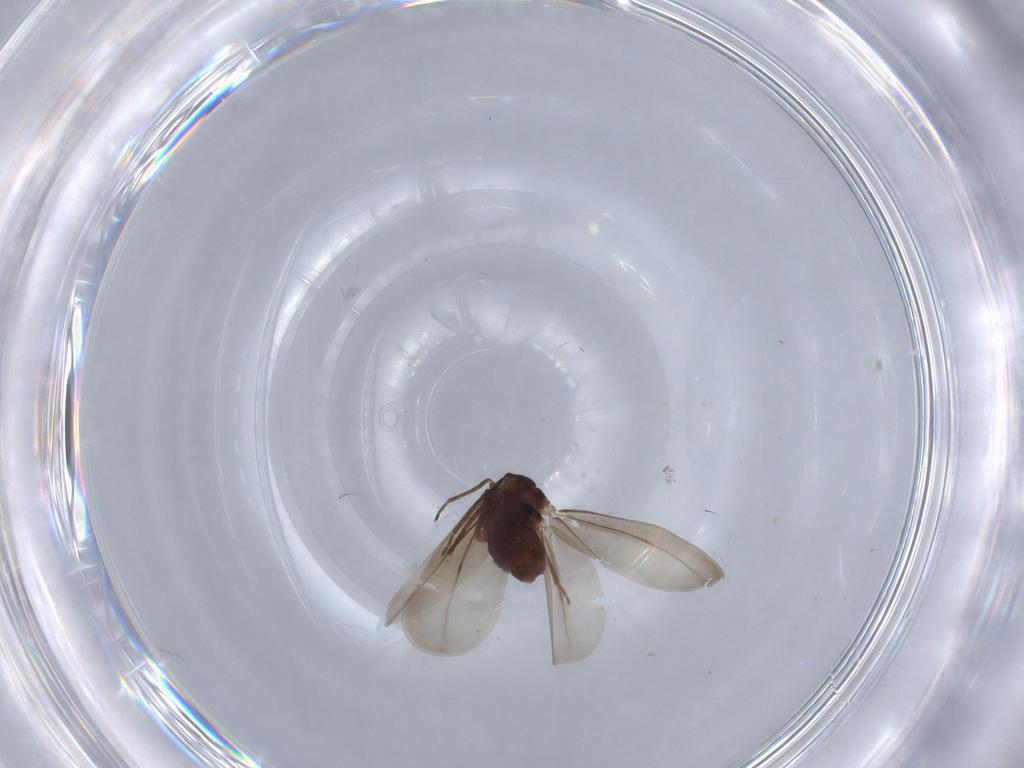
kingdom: Animalia
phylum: Arthropoda
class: Insecta
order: Hemiptera
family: Aleyrodidae
